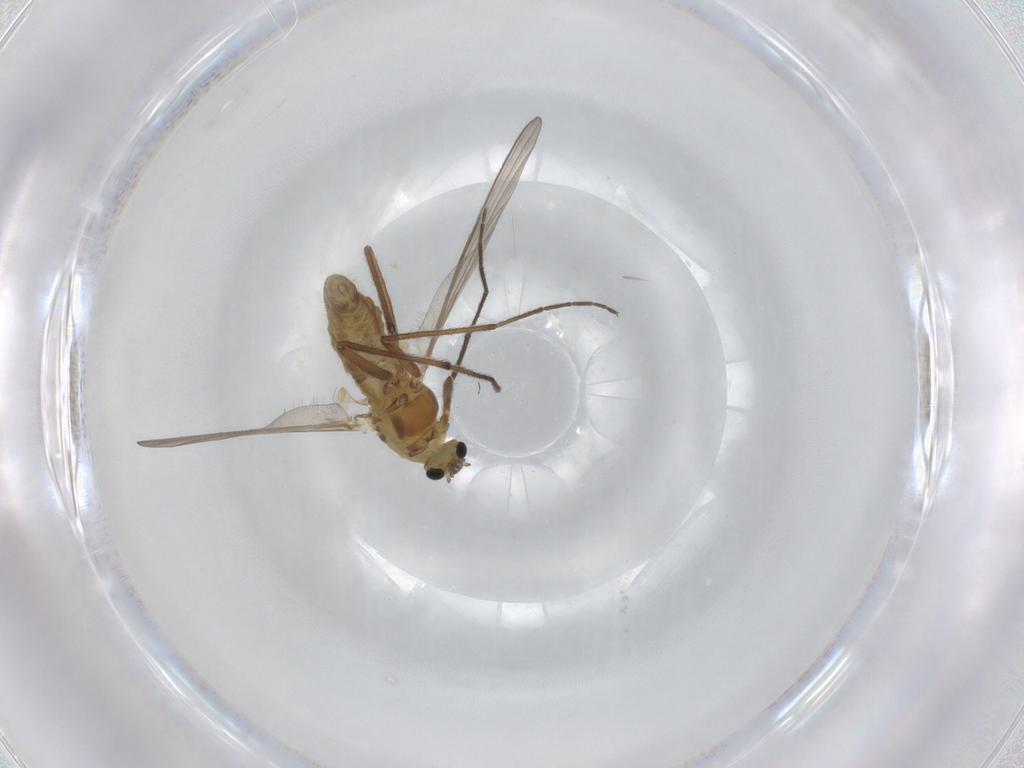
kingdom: Animalia
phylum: Arthropoda
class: Insecta
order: Diptera
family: Chironomidae
